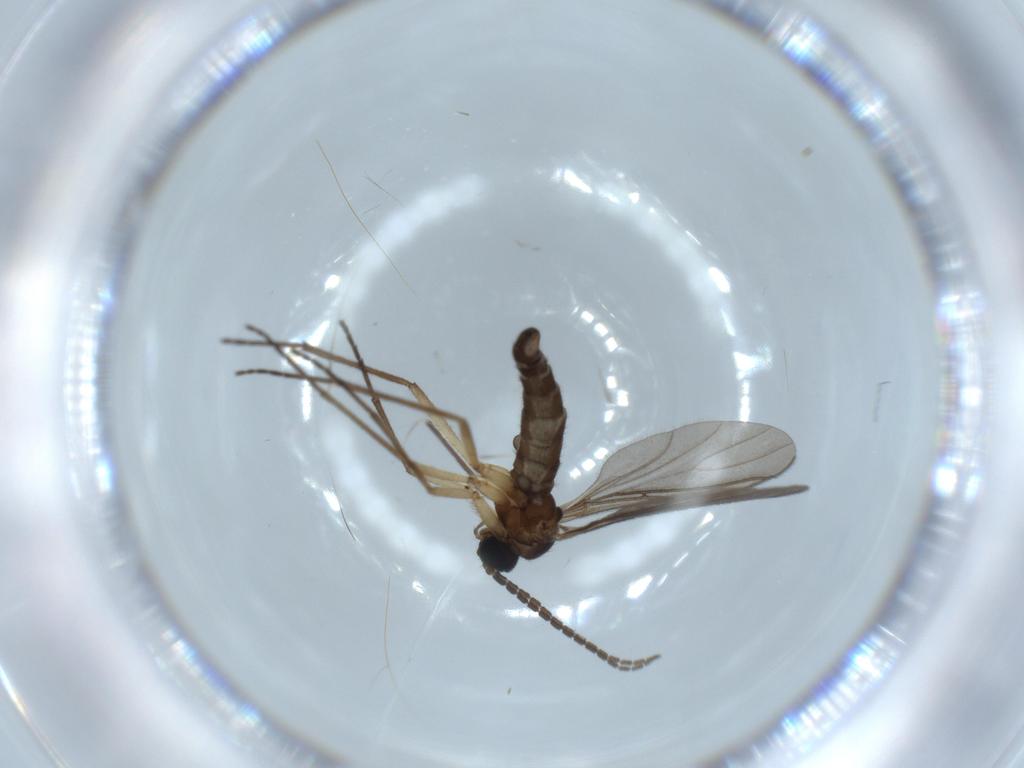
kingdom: Animalia
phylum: Arthropoda
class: Insecta
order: Diptera
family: Sciaridae
